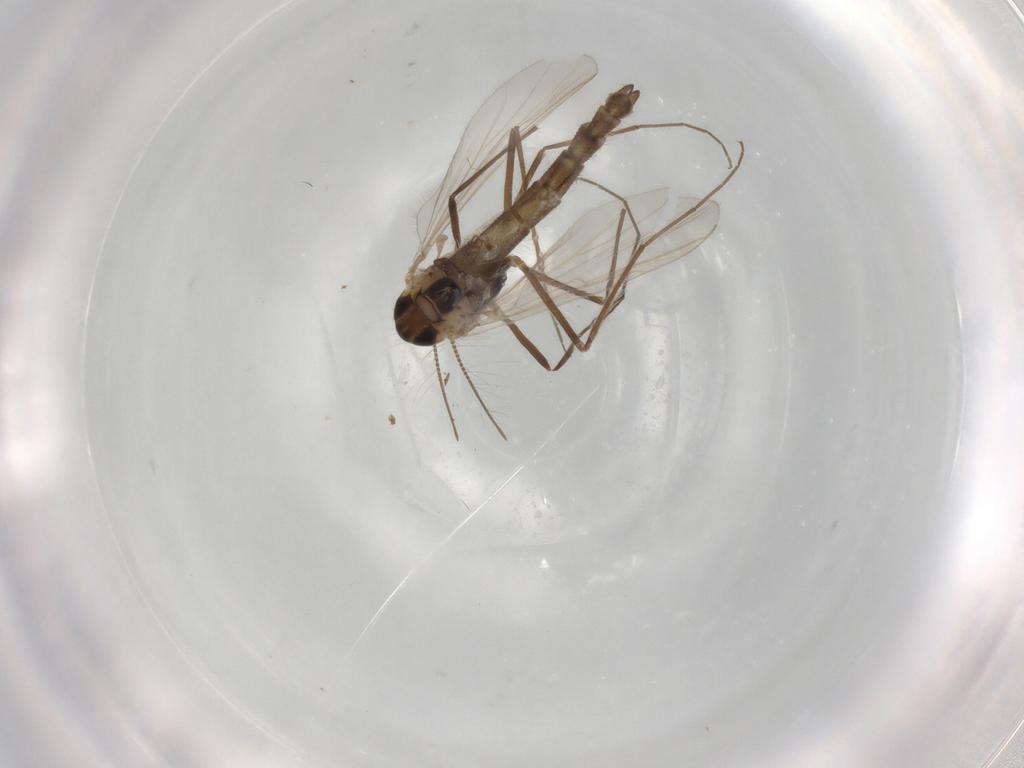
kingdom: Animalia
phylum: Arthropoda
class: Insecta
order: Diptera
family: Chironomidae
